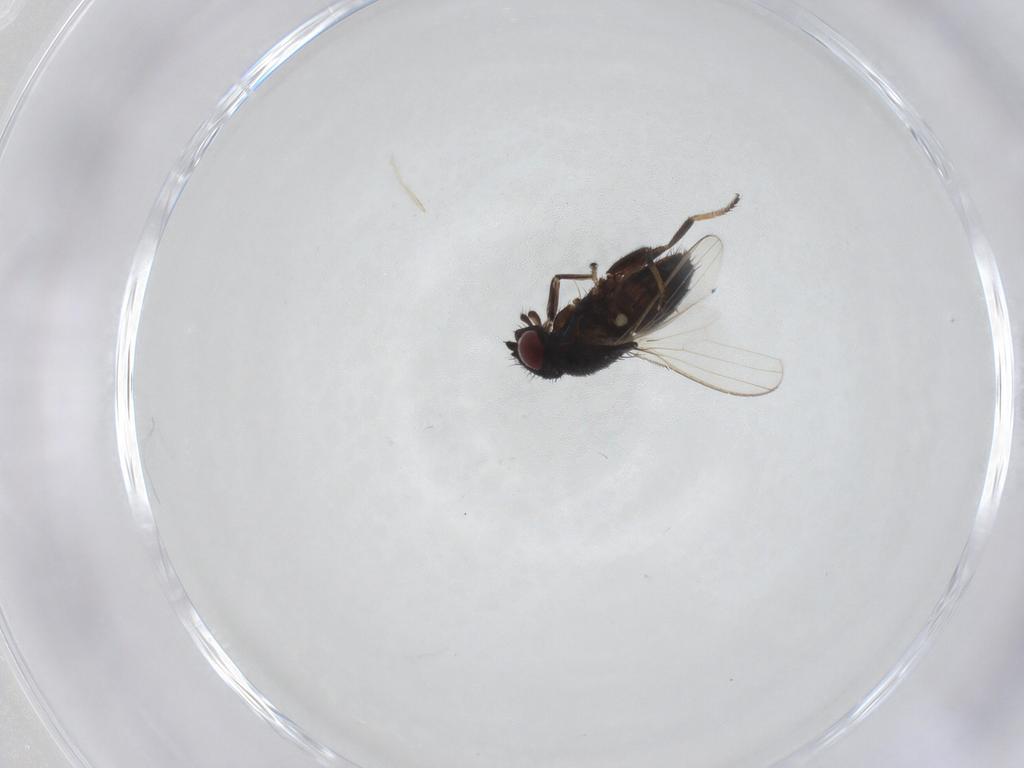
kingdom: Animalia
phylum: Arthropoda
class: Insecta
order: Diptera
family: Milichiidae
